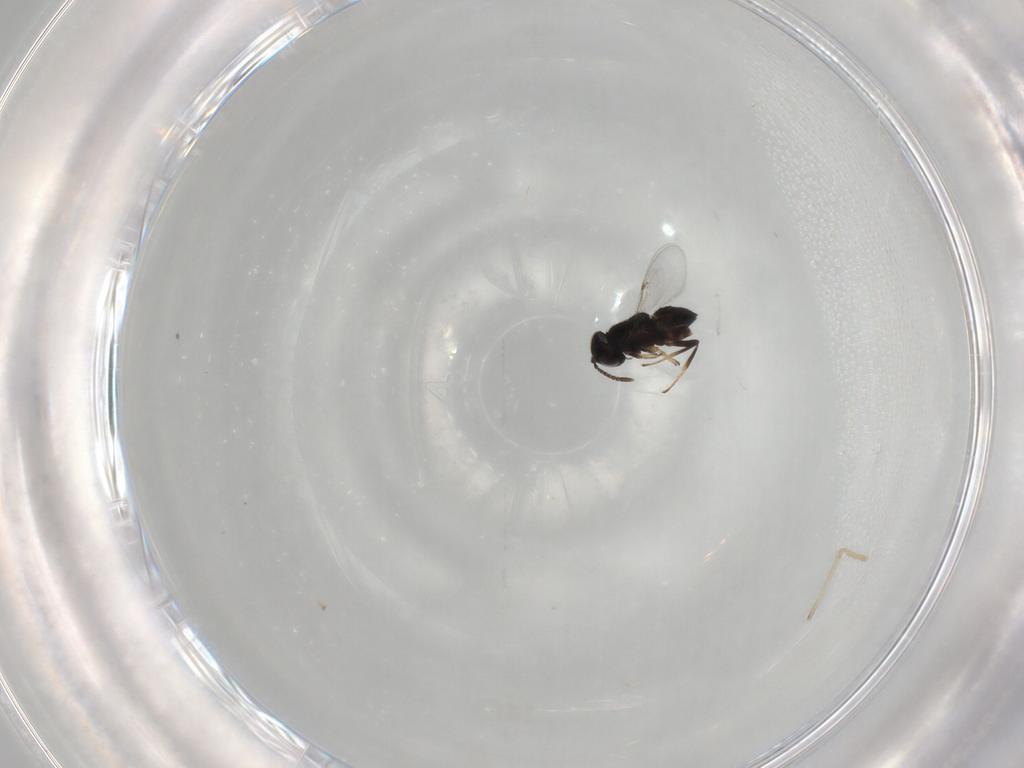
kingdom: Animalia
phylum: Arthropoda
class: Insecta
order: Hymenoptera
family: Encyrtidae
